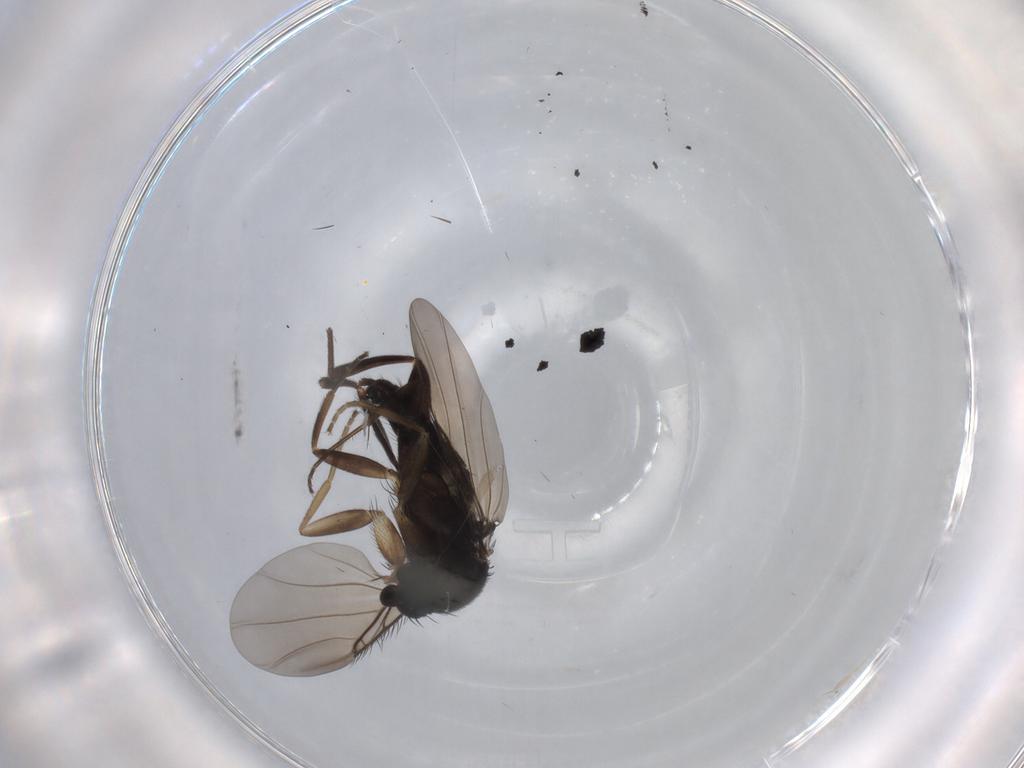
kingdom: Animalia
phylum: Arthropoda
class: Insecta
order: Diptera
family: Phoridae
